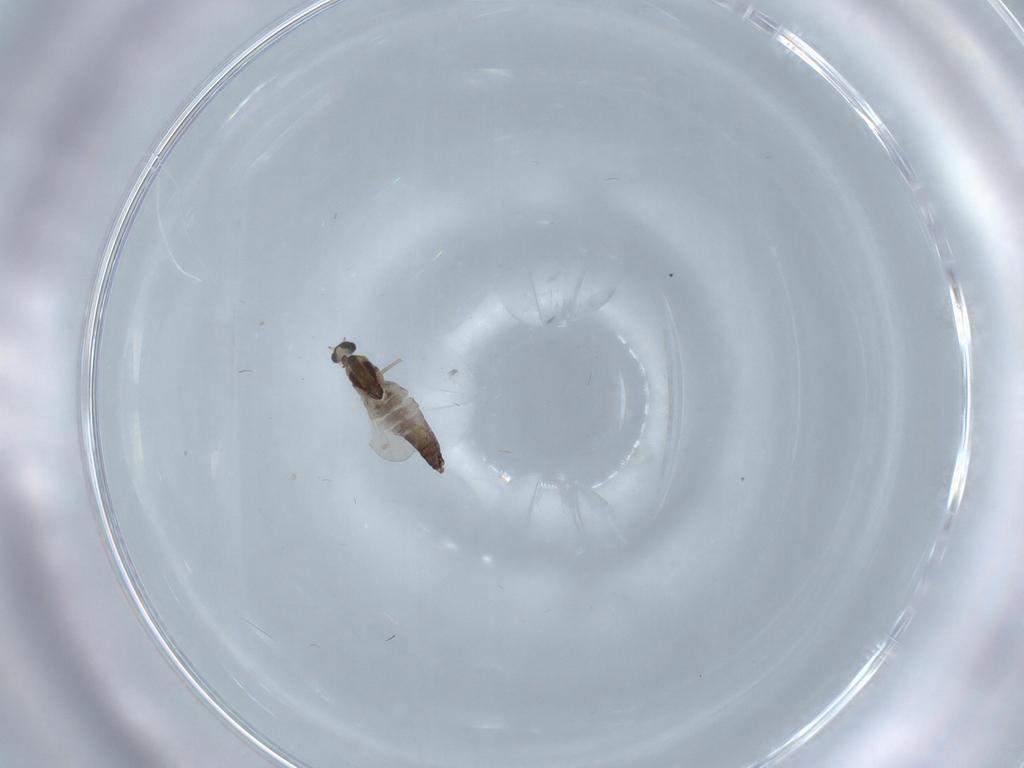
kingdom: Animalia
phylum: Arthropoda
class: Insecta
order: Diptera
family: Chironomidae
